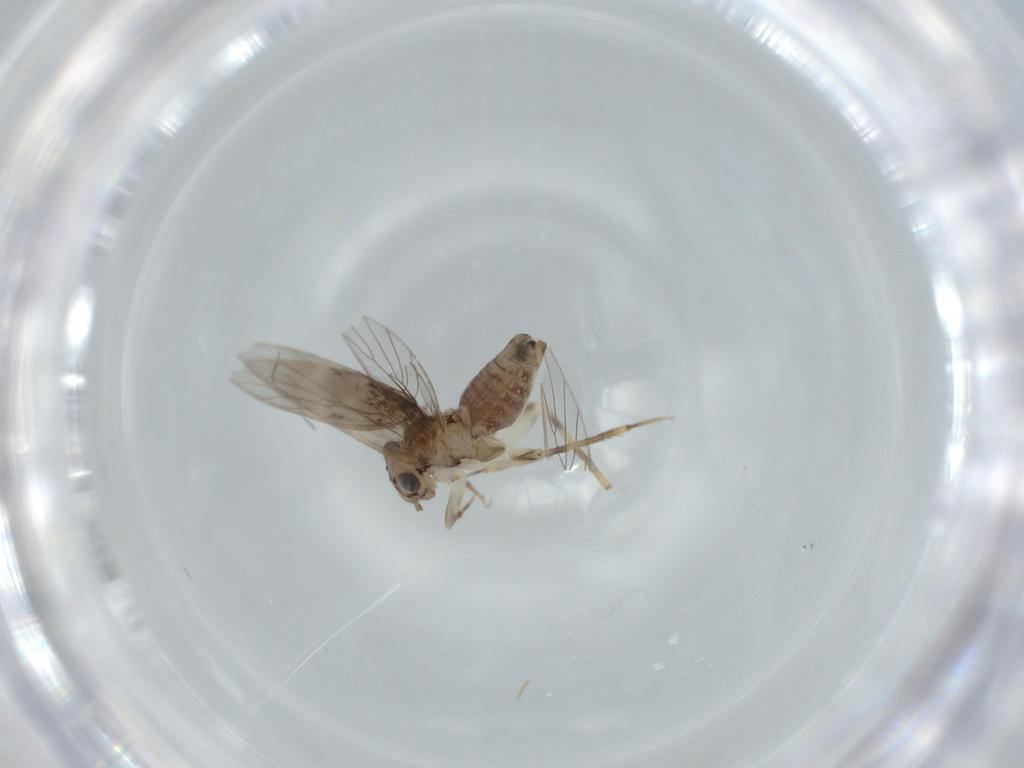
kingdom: Animalia
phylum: Arthropoda
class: Insecta
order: Psocodea
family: Lepidopsocidae
